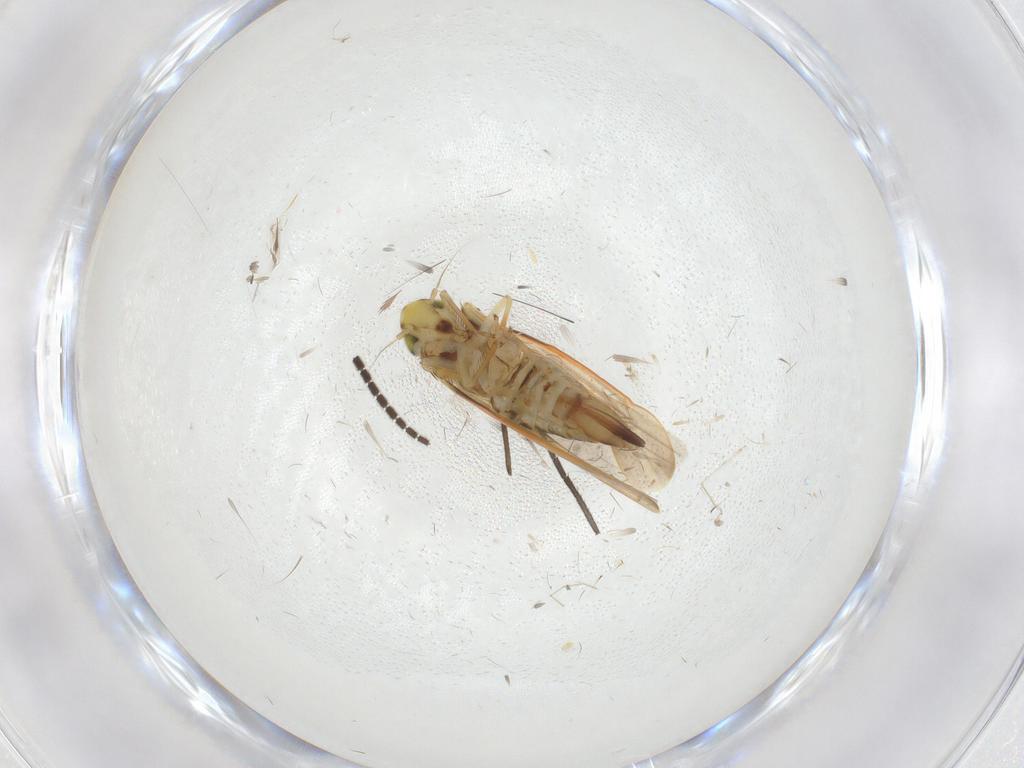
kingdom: Animalia
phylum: Arthropoda
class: Insecta
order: Hemiptera
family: Cicadellidae
